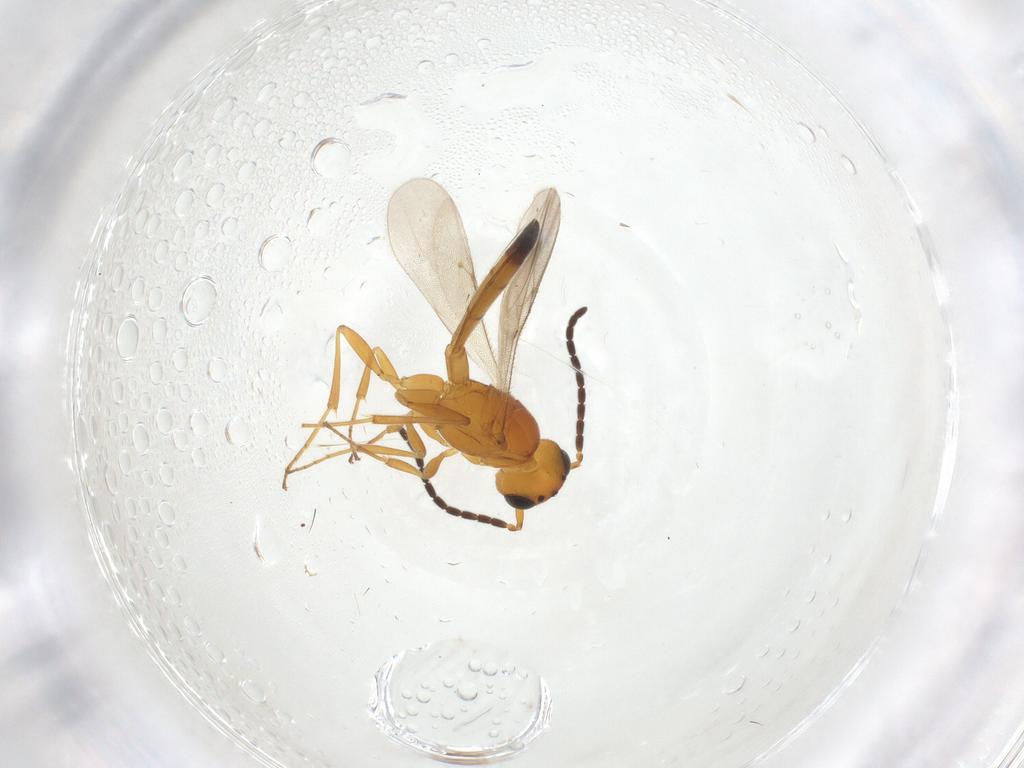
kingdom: Animalia
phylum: Arthropoda
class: Insecta
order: Hymenoptera
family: Scelionidae
